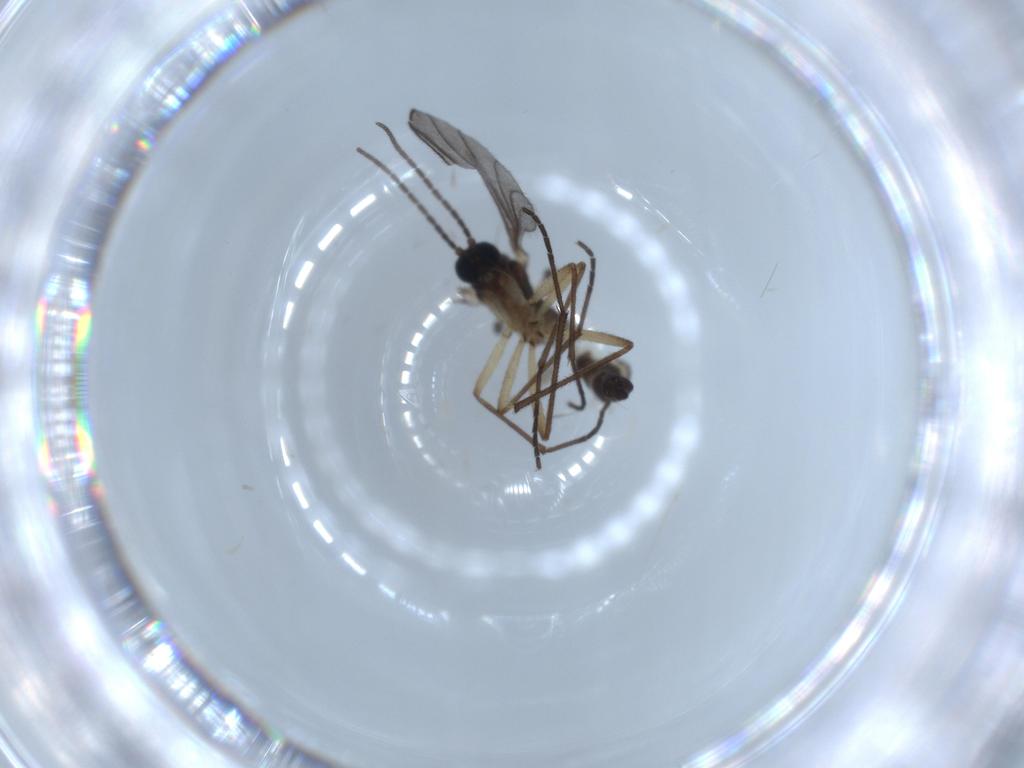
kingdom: Animalia
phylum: Arthropoda
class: Insecta
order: Diptera
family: Sciaridae
